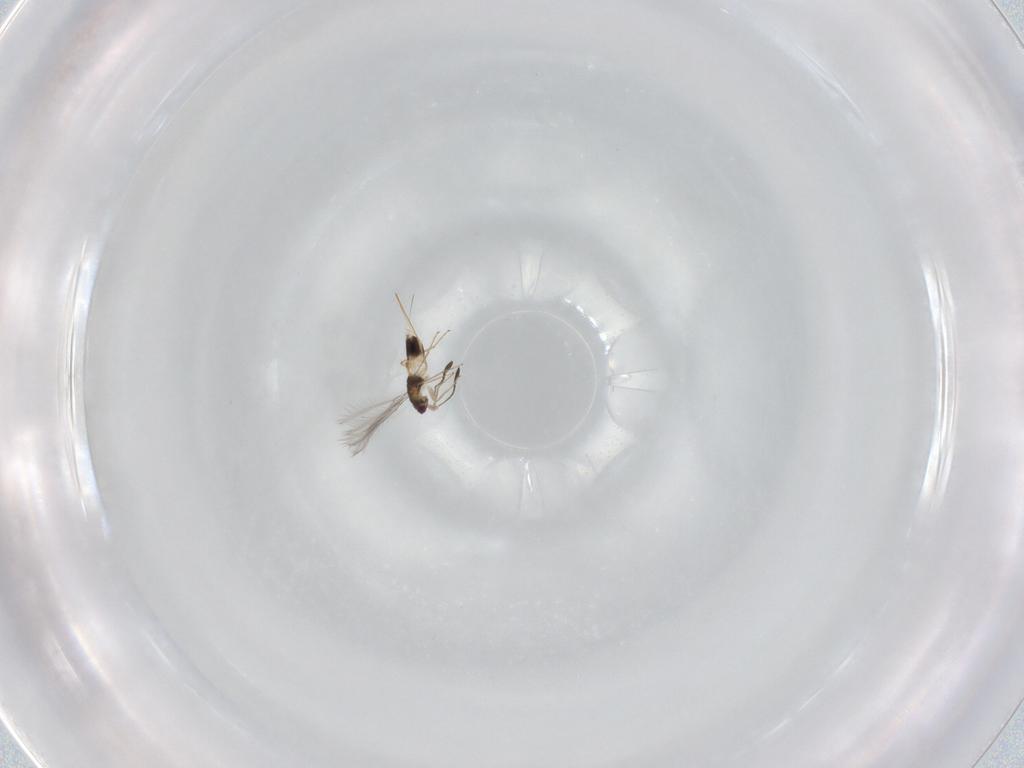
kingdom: Animalia
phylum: Arthropoda
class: Insecta
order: Hymenoptera
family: Mymaridae
